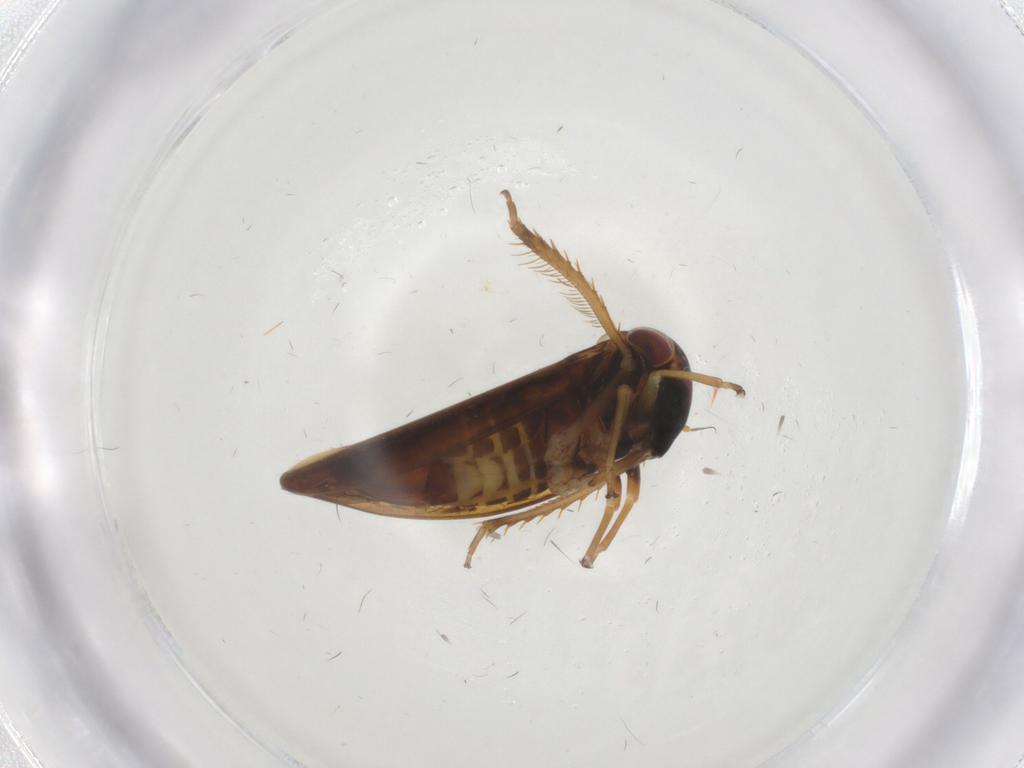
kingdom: Animalia
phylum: Arthropoda
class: Insecta
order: Hemiptera
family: Cicadellidae
